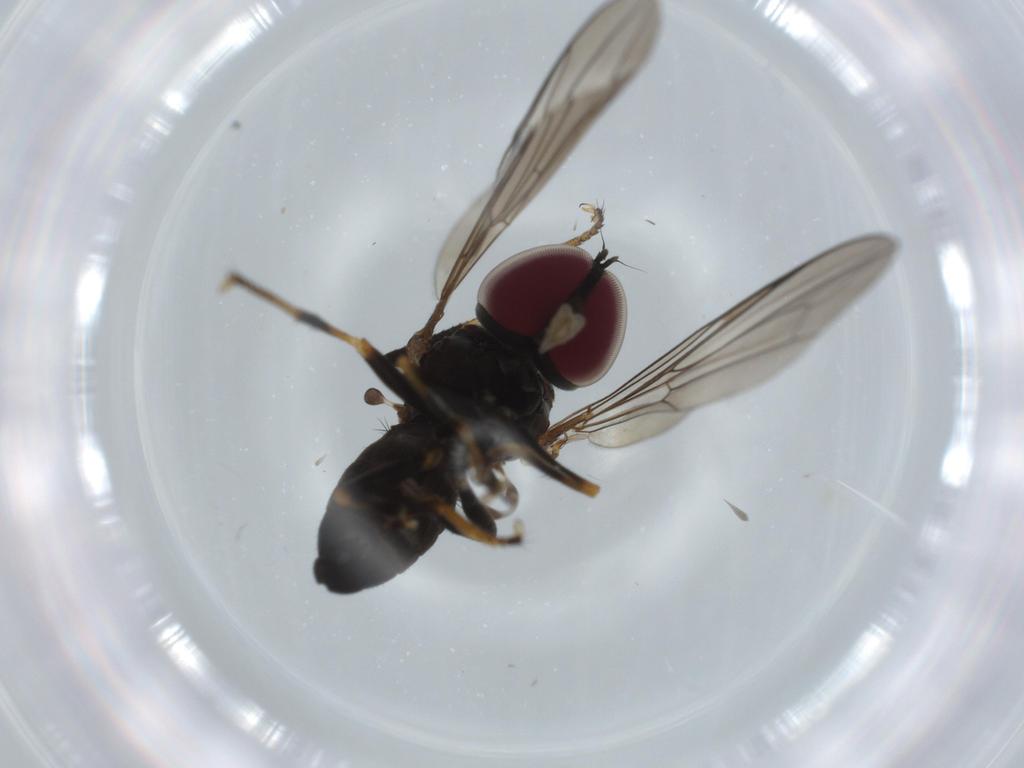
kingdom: Animalia
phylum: Arthropoda
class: Insecta
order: Diptera
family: Cecidomyiidae
